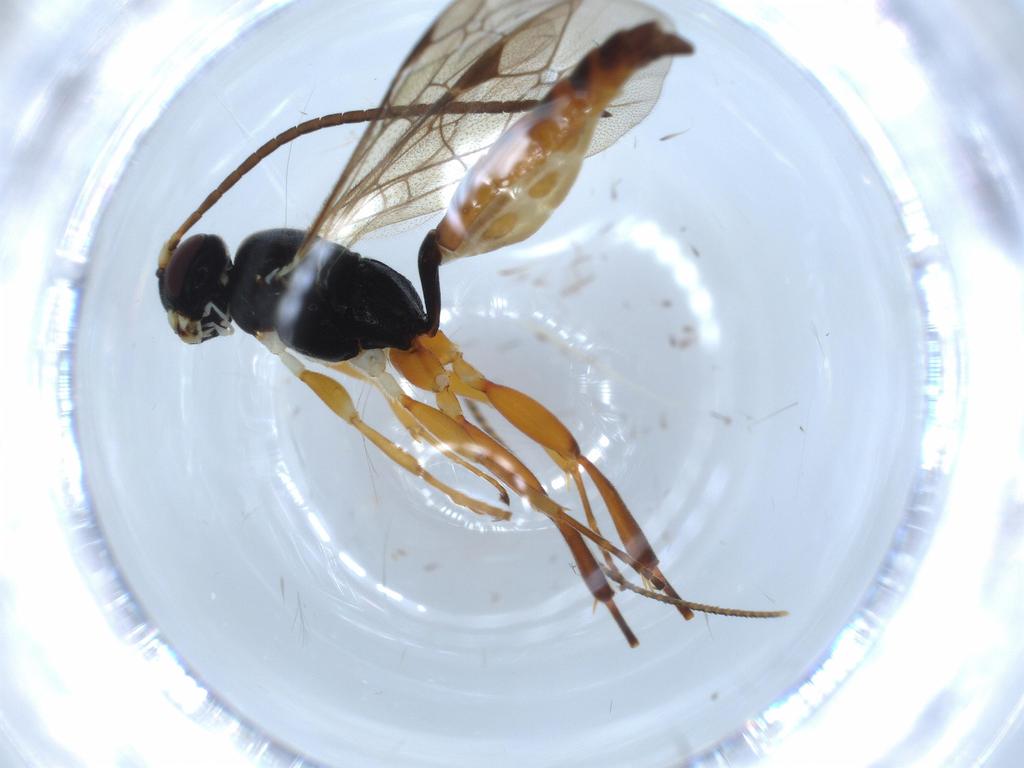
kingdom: Animalia
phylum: Arthropoda
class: Insecta
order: Hymenoptera
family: Ichneumonidae
